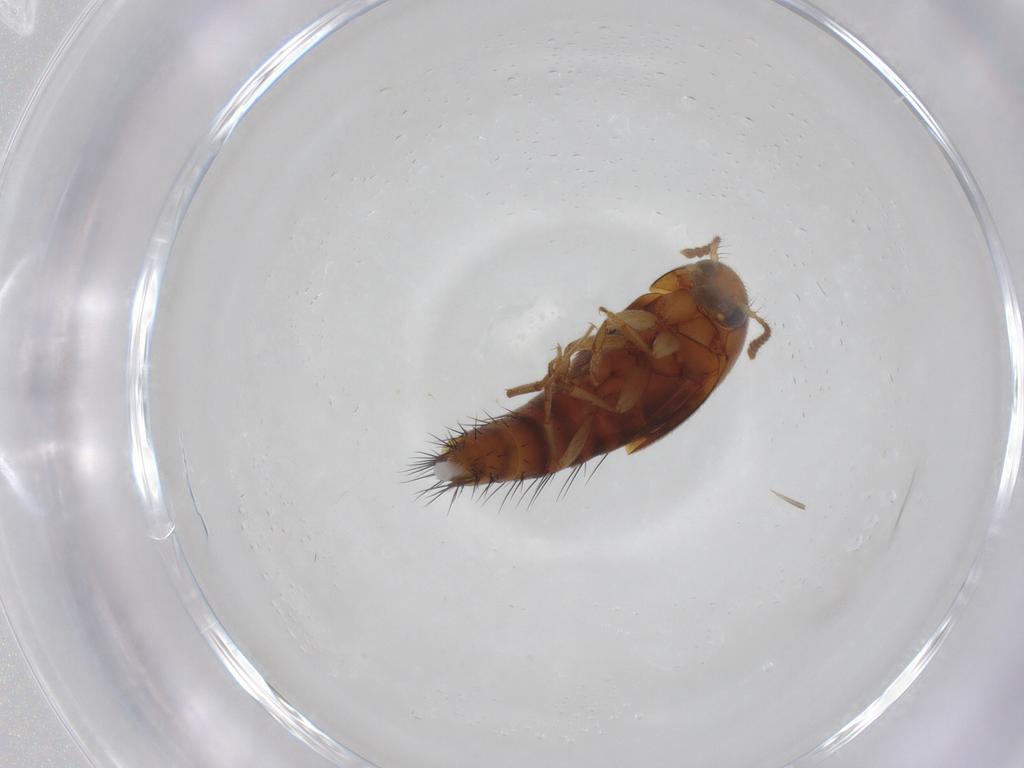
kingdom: Animalia
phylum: Arthropoda
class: Insecta
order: Coleoptera
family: Staphylinidae
